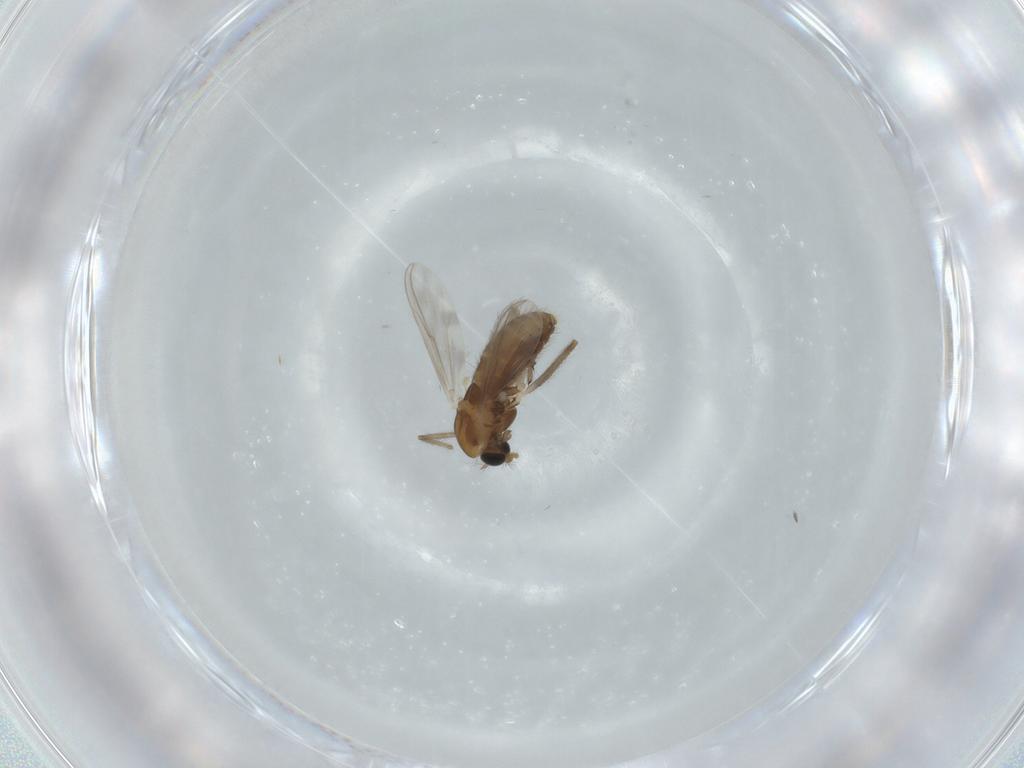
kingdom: Animalia
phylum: Arthropoda
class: Insecta
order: Diptera
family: Chironomidae
